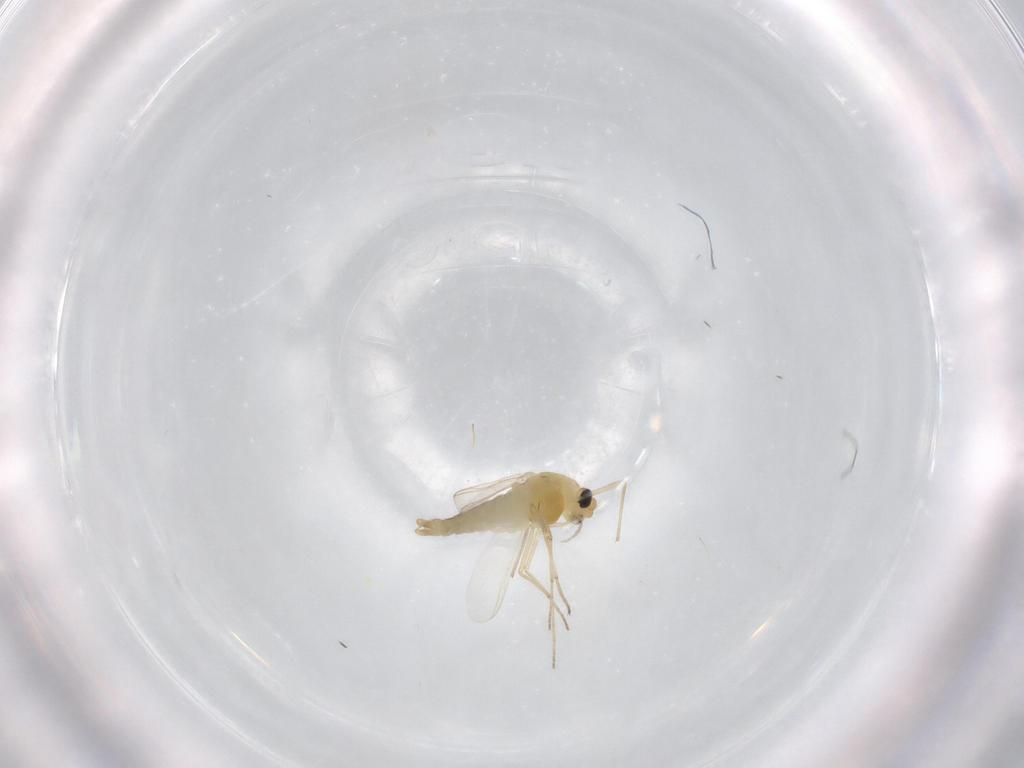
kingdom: Animalia
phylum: Arthropoda
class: Insecta
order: Diptera
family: Chironomidae
